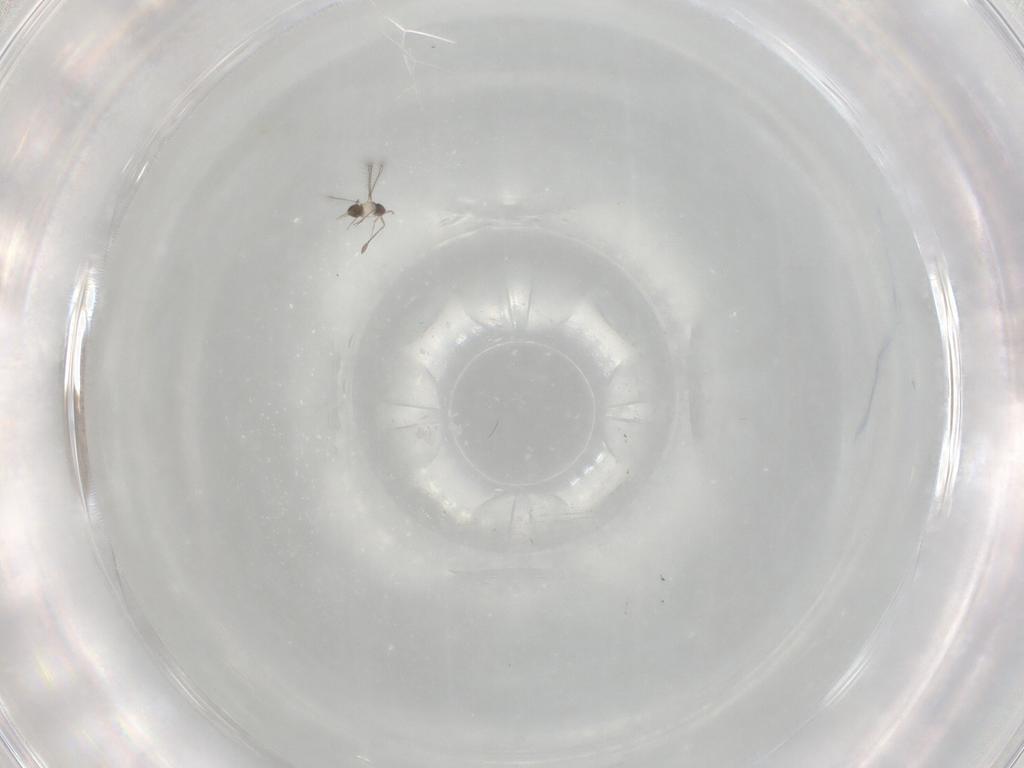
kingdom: Animalia
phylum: Arthropoda
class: Insecta
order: Hymenoptera
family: Mymaridae
